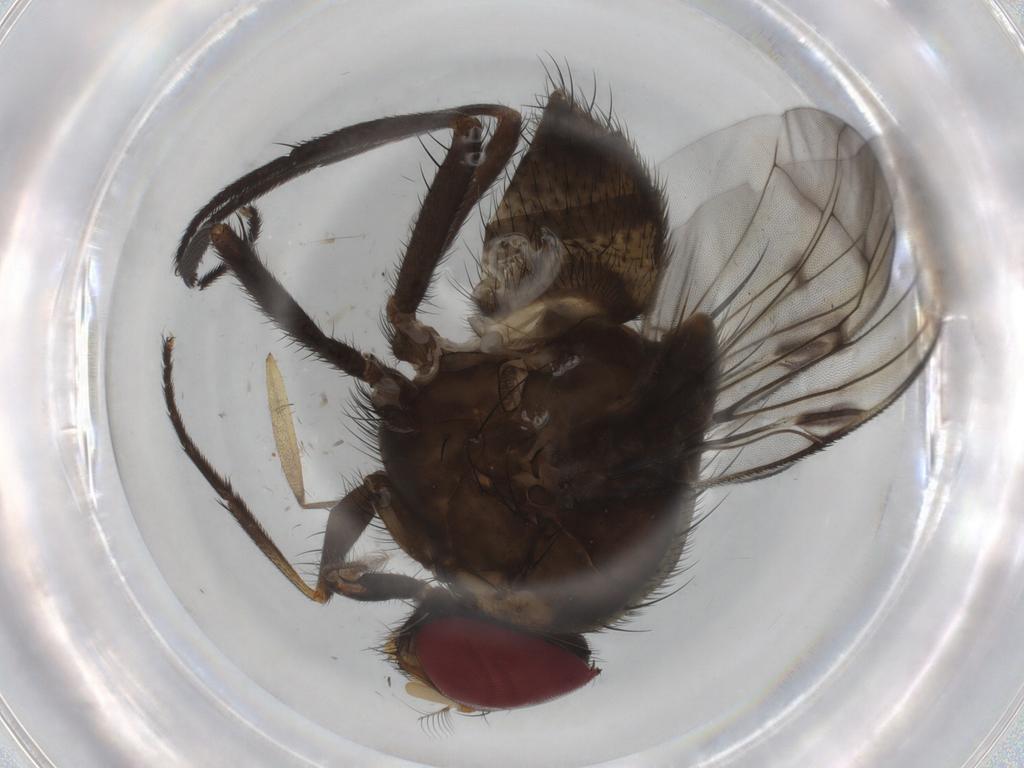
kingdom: Animalia
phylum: Arthropoda
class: Insecta
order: Diptera
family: Muscidae
